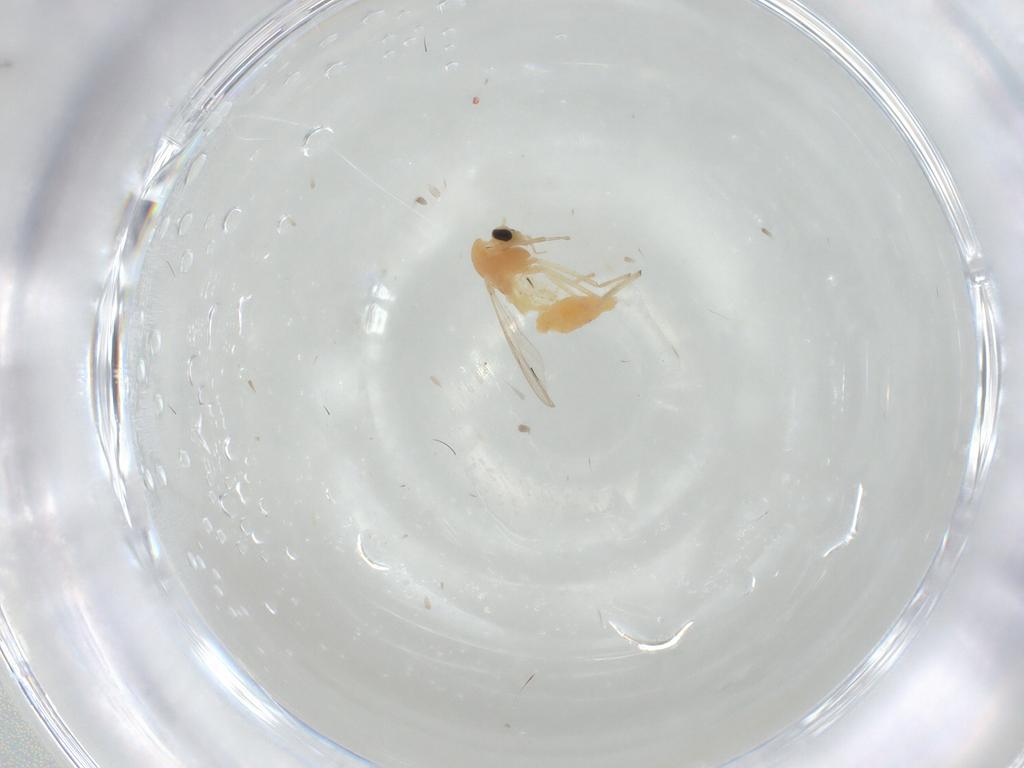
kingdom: Animalia
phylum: Arthropoda
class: Insecta
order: Diptera
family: Chironomidae
